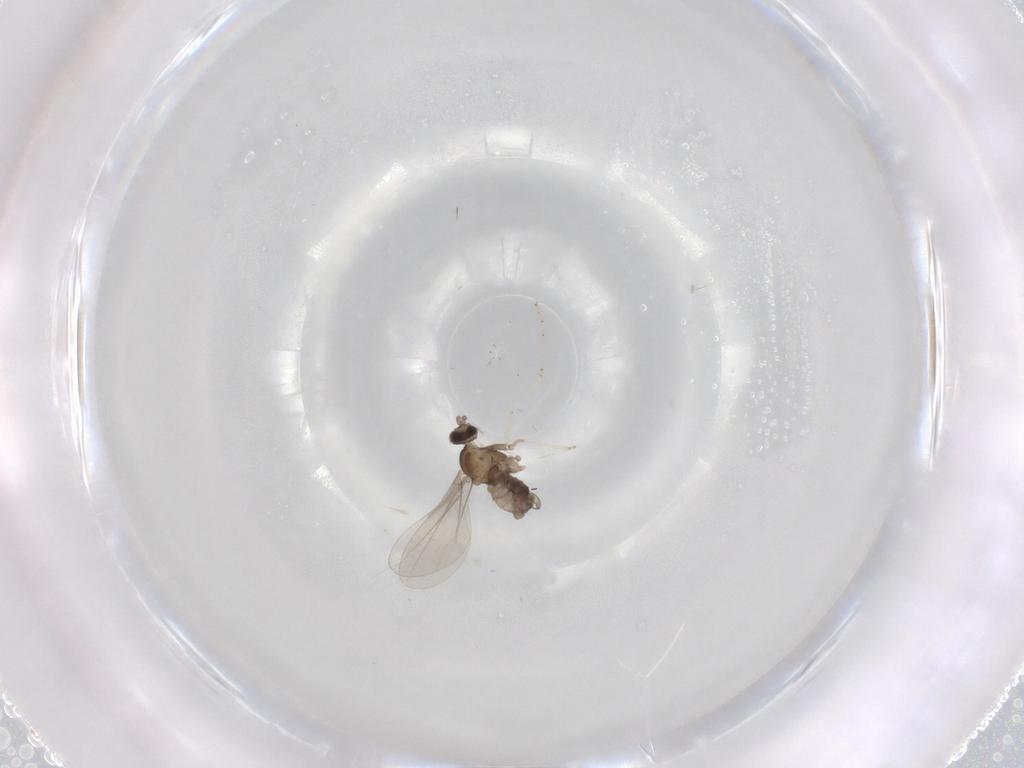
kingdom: Animalia
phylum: Arthropoda
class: Insecta
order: Diptera
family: Cecidomyiidae
